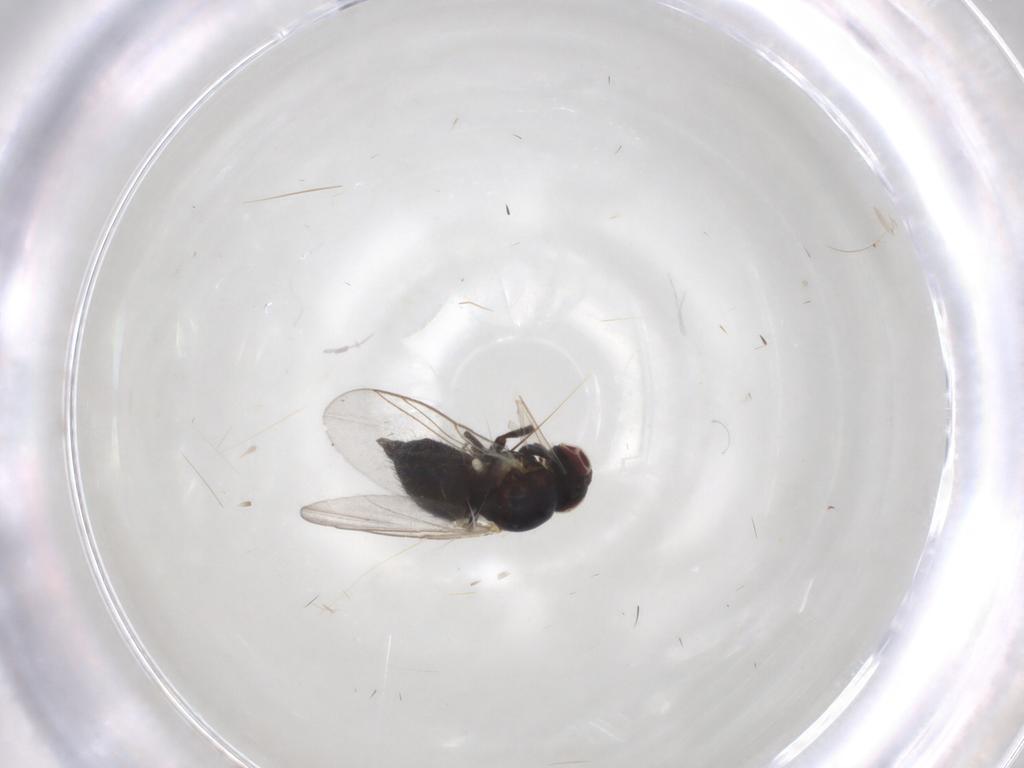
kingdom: Animalia
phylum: Arthropoda
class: Insecta
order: Diptera
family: Agromyzidae
